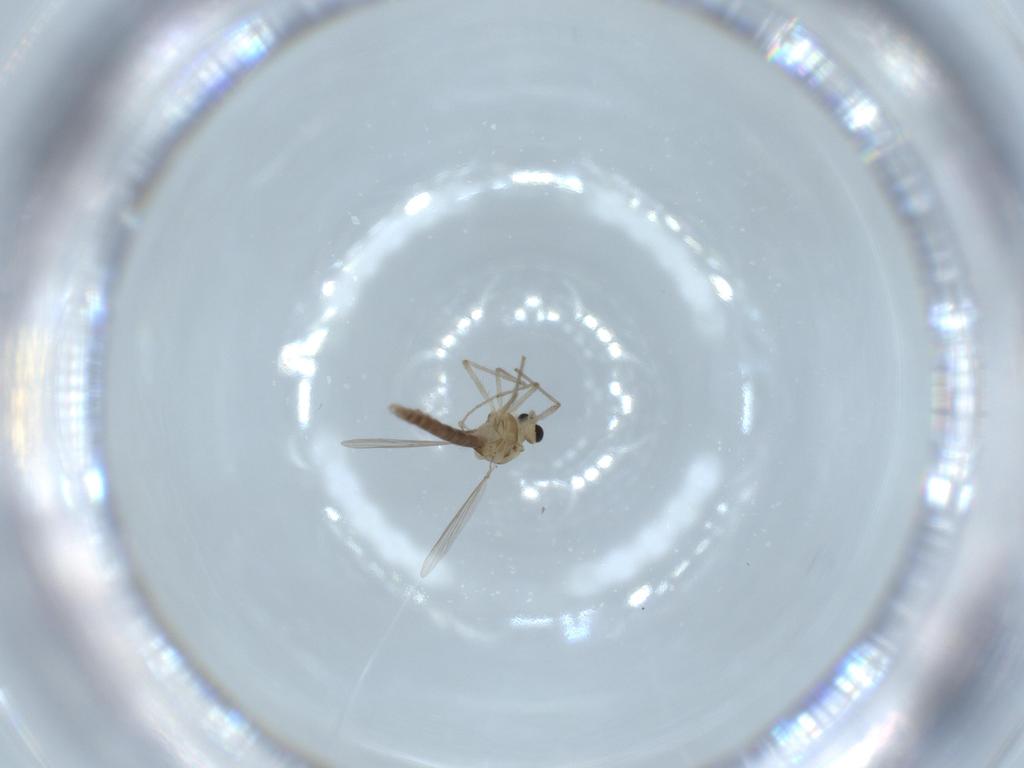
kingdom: Animalia
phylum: Arthropoda
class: Insecta
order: Diptera
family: Chironomidae
